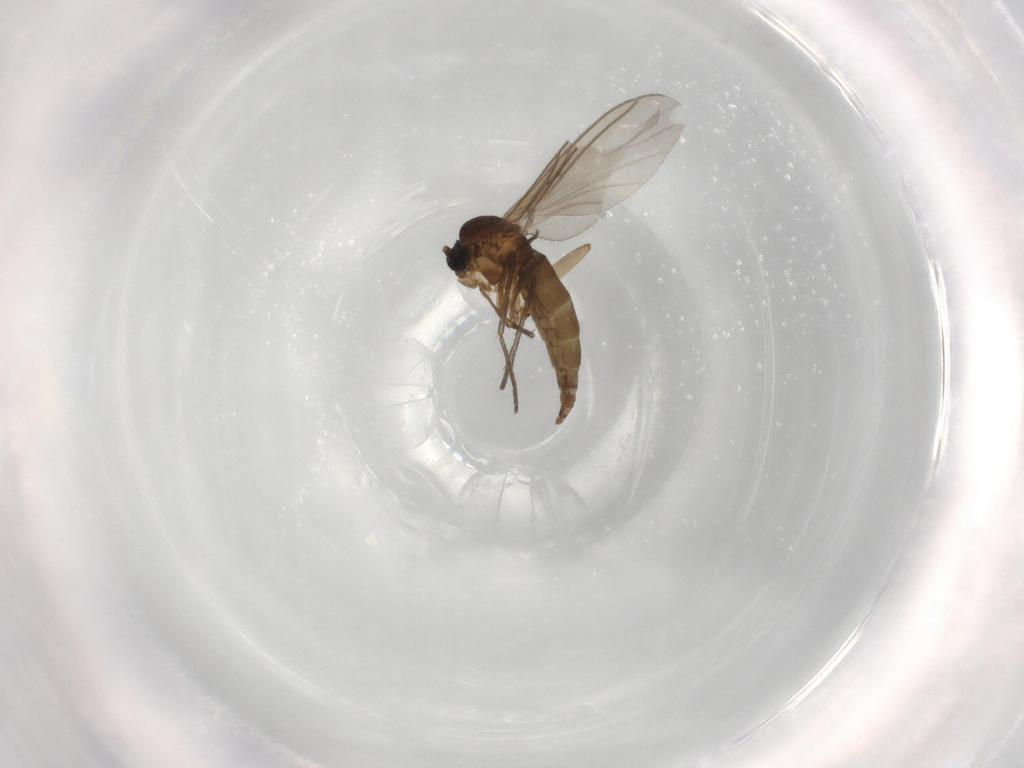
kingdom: Animalia
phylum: Arthropoda
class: Insecta
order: Diptera
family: Sciaridae
